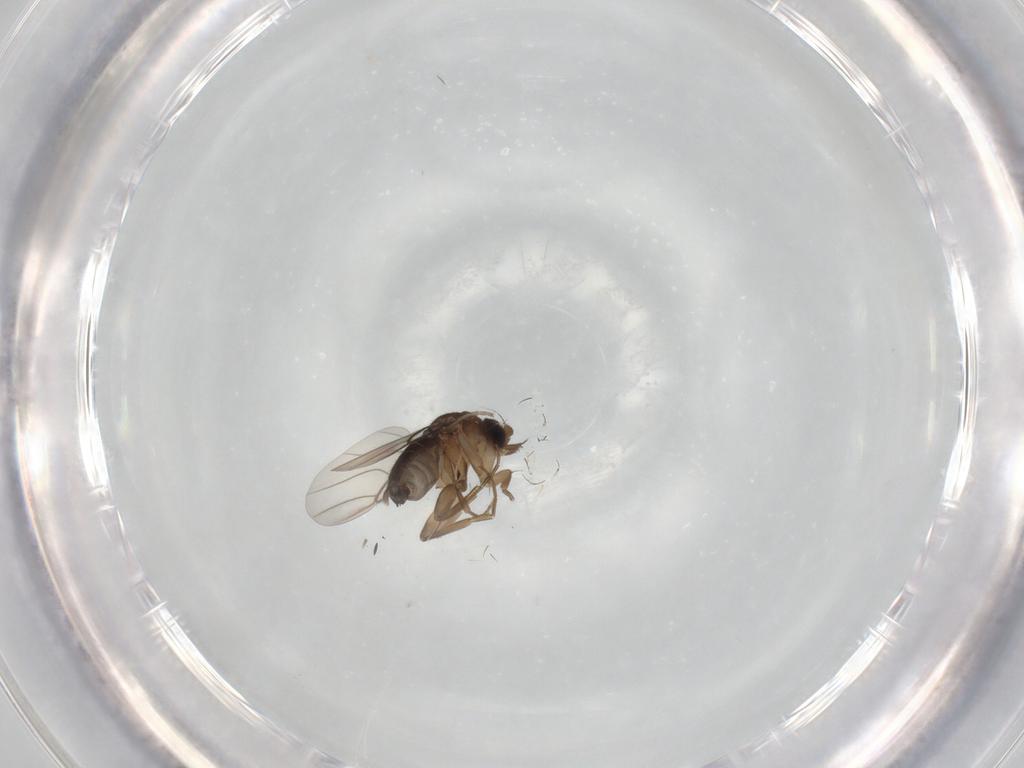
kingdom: Animalia
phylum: Arthropoda
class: Insecta
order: Diptera
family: Phoridae
